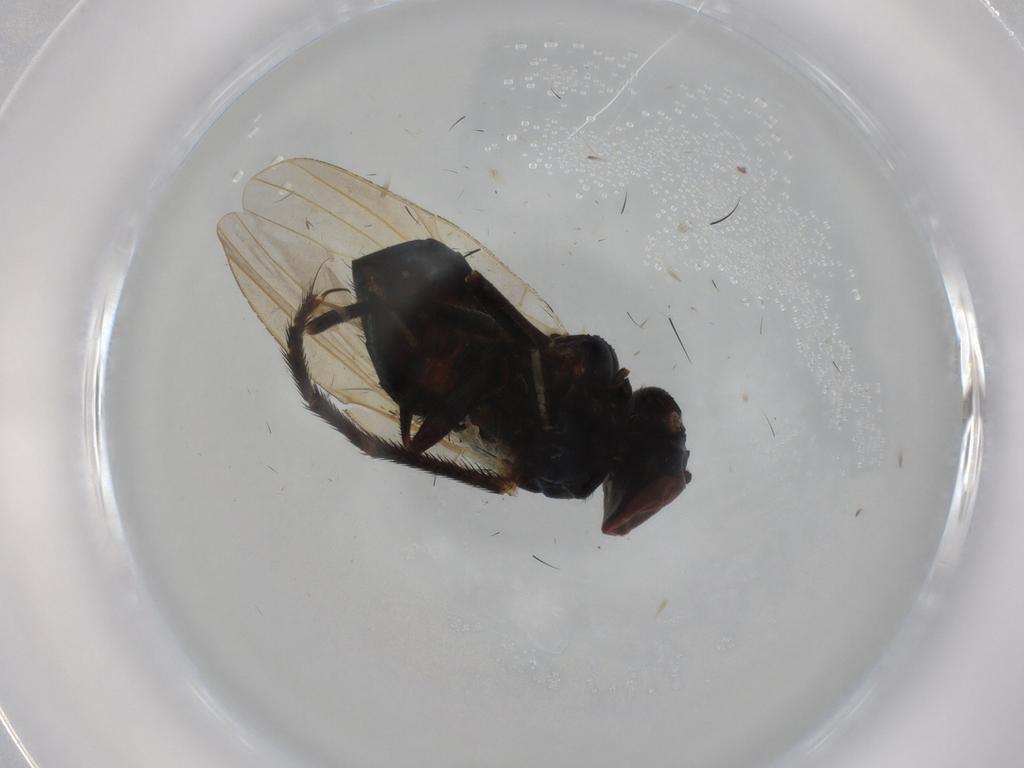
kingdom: Animalia
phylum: Arthropoda
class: Insecta
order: Diptera
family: Lonchaeidae
